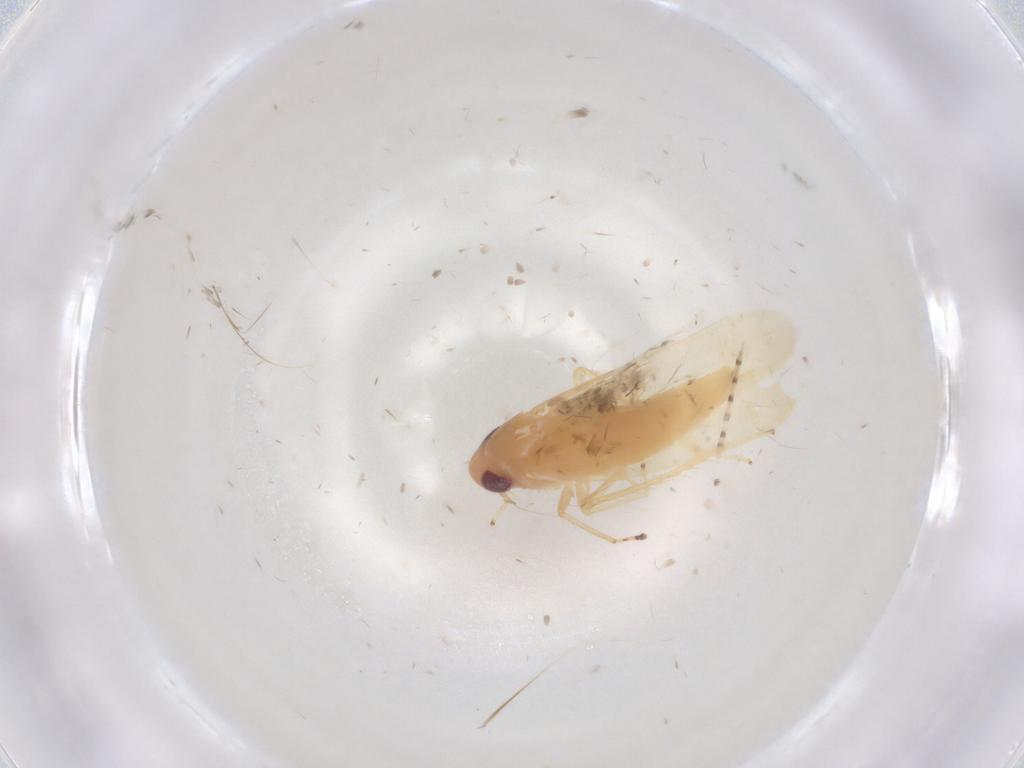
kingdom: Animalia
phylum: Arthropoda
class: Insecta
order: Hemiptera
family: Cicadellidae
